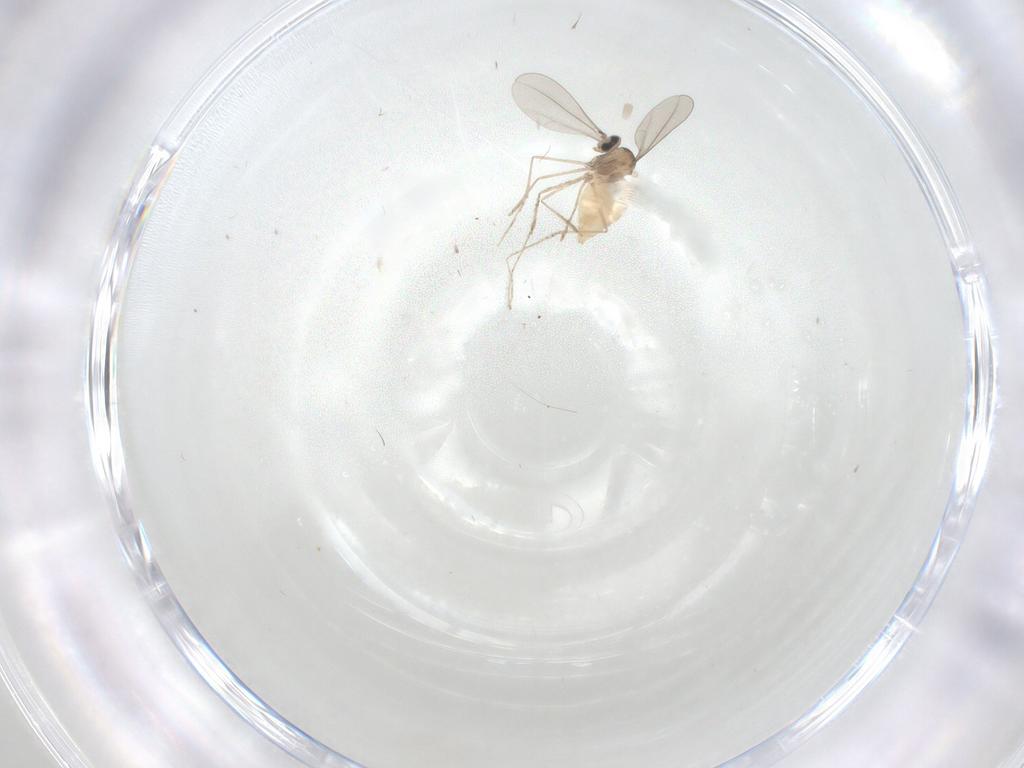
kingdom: Animalia
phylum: Arthropoda
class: Insecta
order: Diptera
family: Cecidomyiidae
